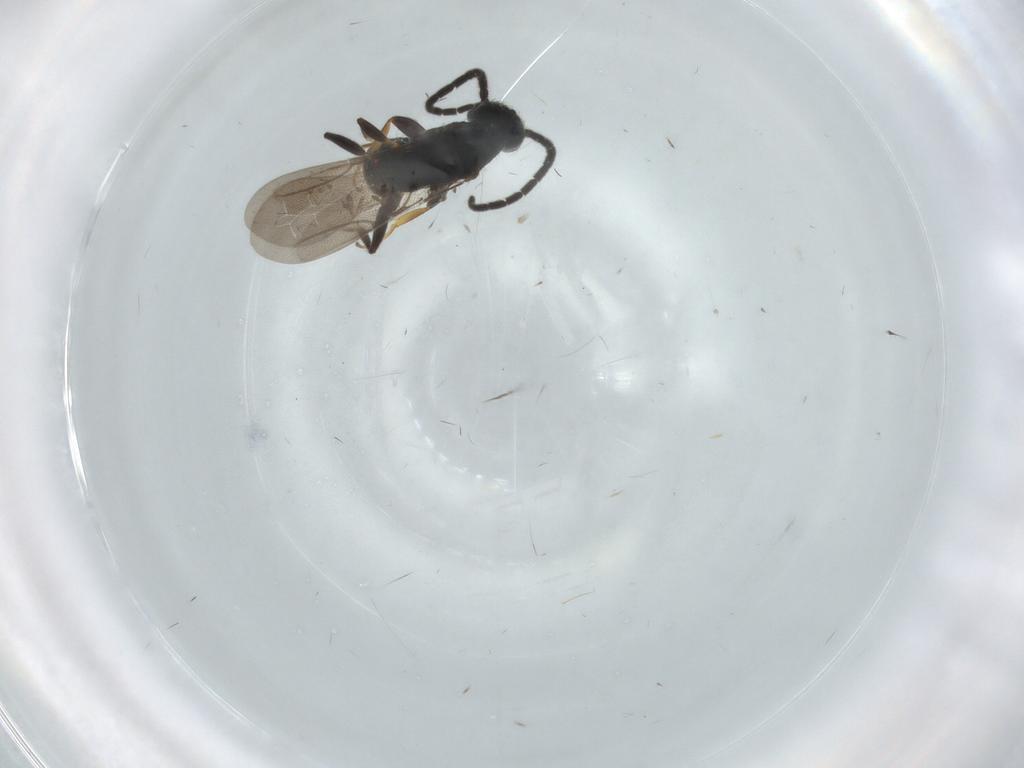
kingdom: Animalia
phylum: Arthropoda
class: Insecta
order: Hymenoptera
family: Bethylidae
